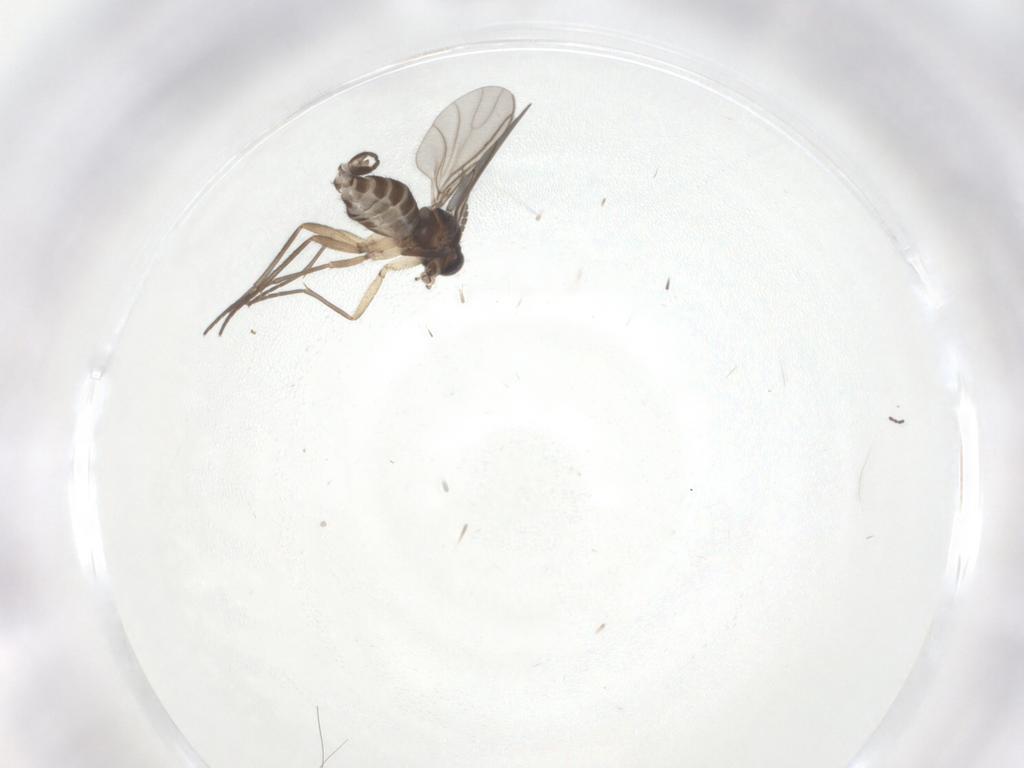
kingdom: Animalia
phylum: Arthropoda
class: Insecta
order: Diptera
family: Sciaridae
